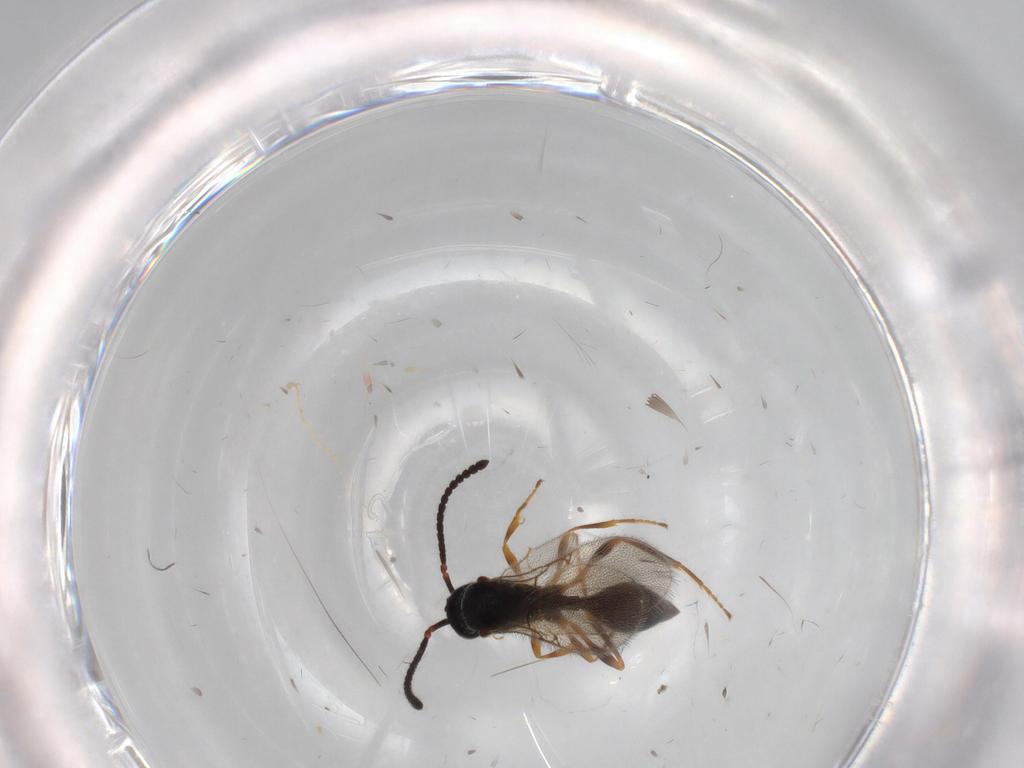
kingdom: Animalia
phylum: Arthropoda
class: Insecta
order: Hymenoptera
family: Diapriidae
